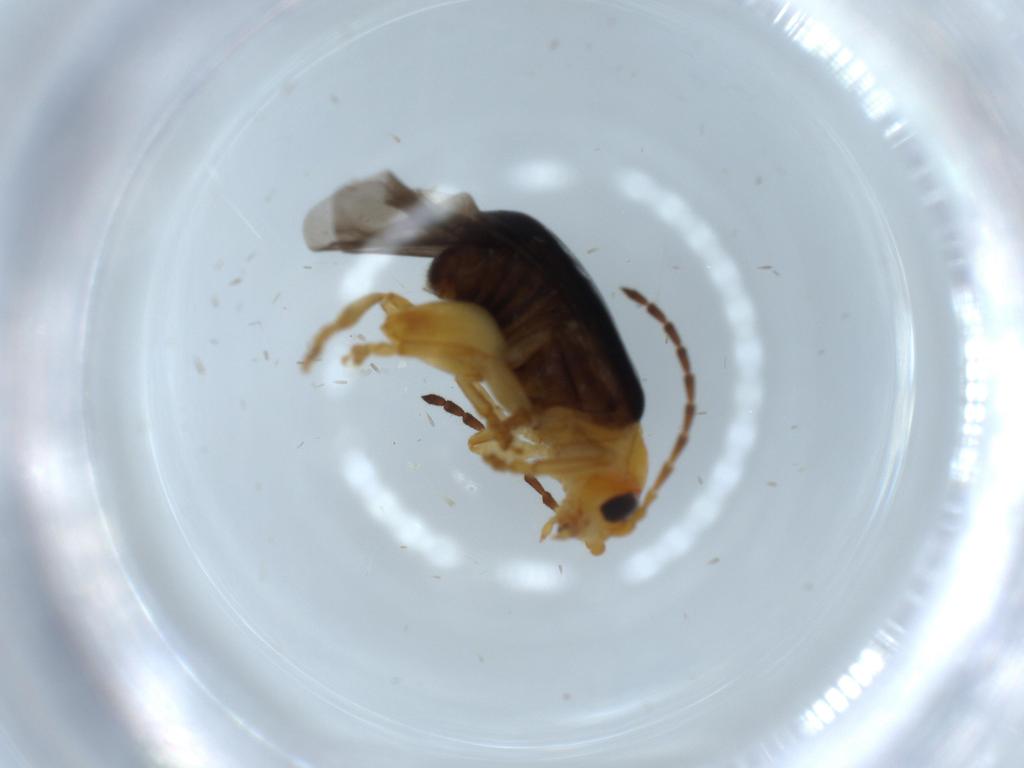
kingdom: Animalia
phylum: Arthropoda
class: Insecta
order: Coleoptera
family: Chrysomelidae
